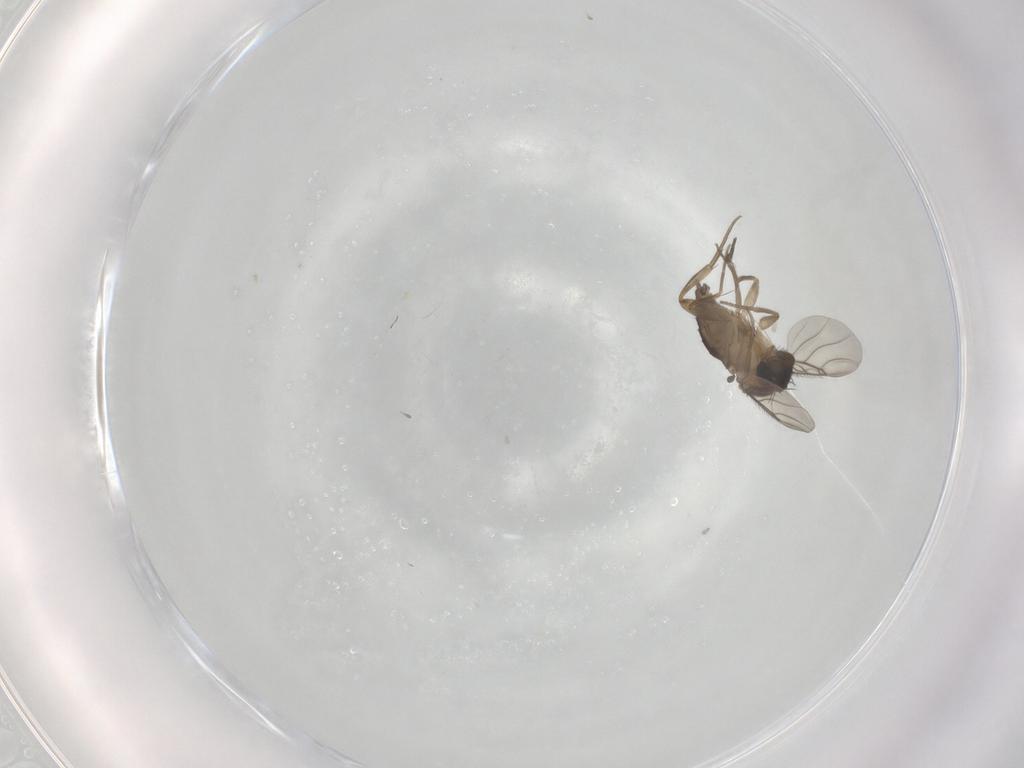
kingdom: Animalia
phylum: Arthropoda
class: Insecta
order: Diptera
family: Phoridae
